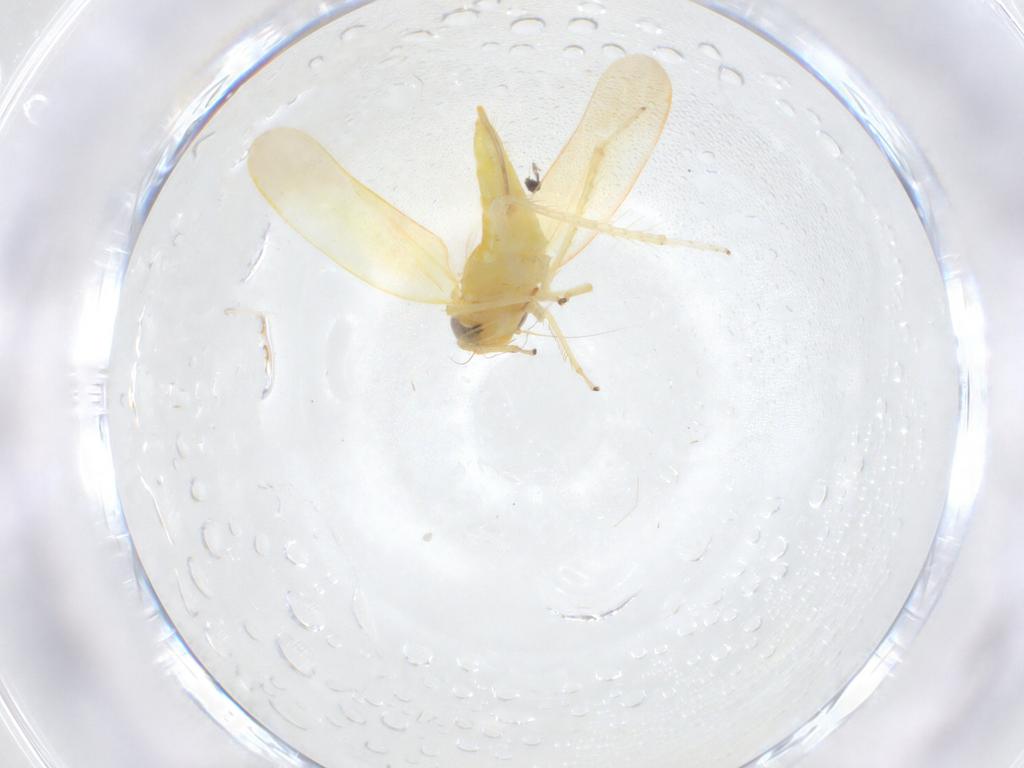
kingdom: Animalia
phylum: Arthropoda
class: Insecta
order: Hemiptera
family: Cicadellidae
